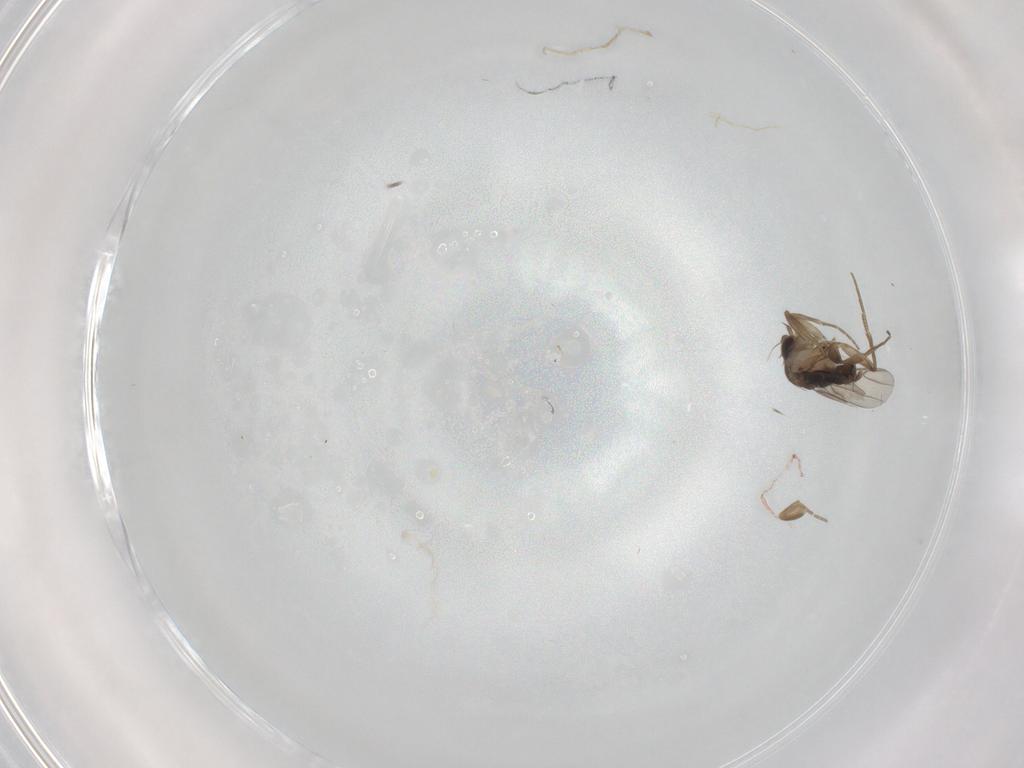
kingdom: Animalia
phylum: Arthropoda
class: Insecta
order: Diptera
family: Phoridae
